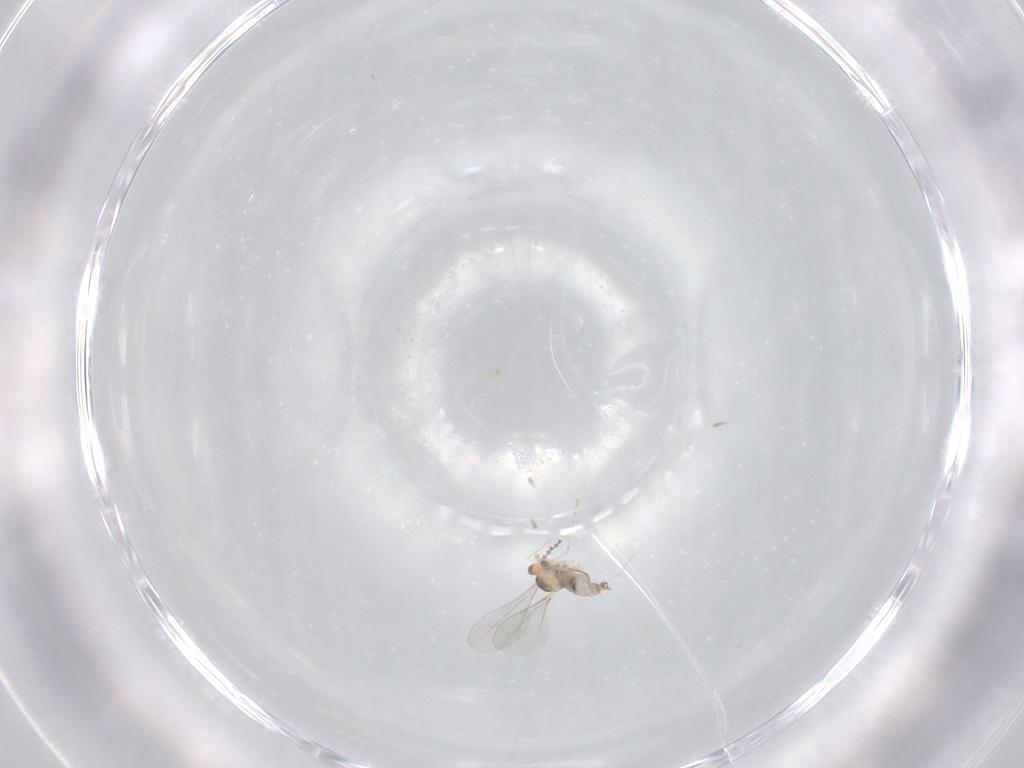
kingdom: Animalia
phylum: Arthropoda
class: Insecta
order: Diptera
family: Cecidomyiidae
